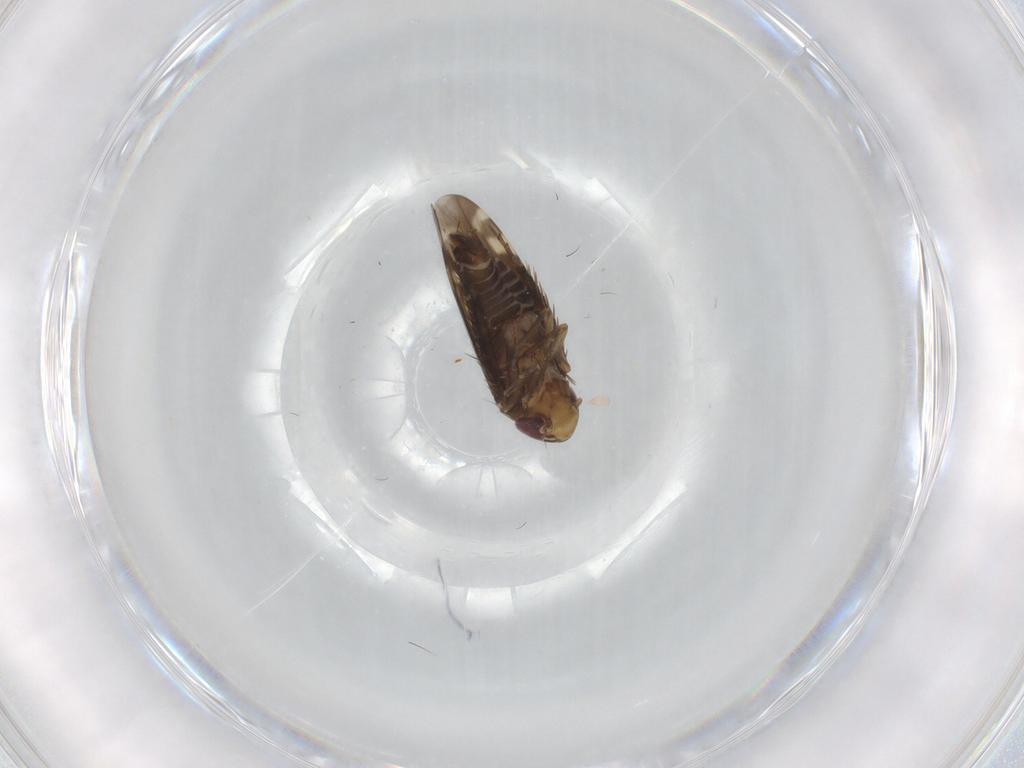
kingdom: Animalia
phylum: Arthropoda
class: Insecta
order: Hemiptera
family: Cicadellidae
